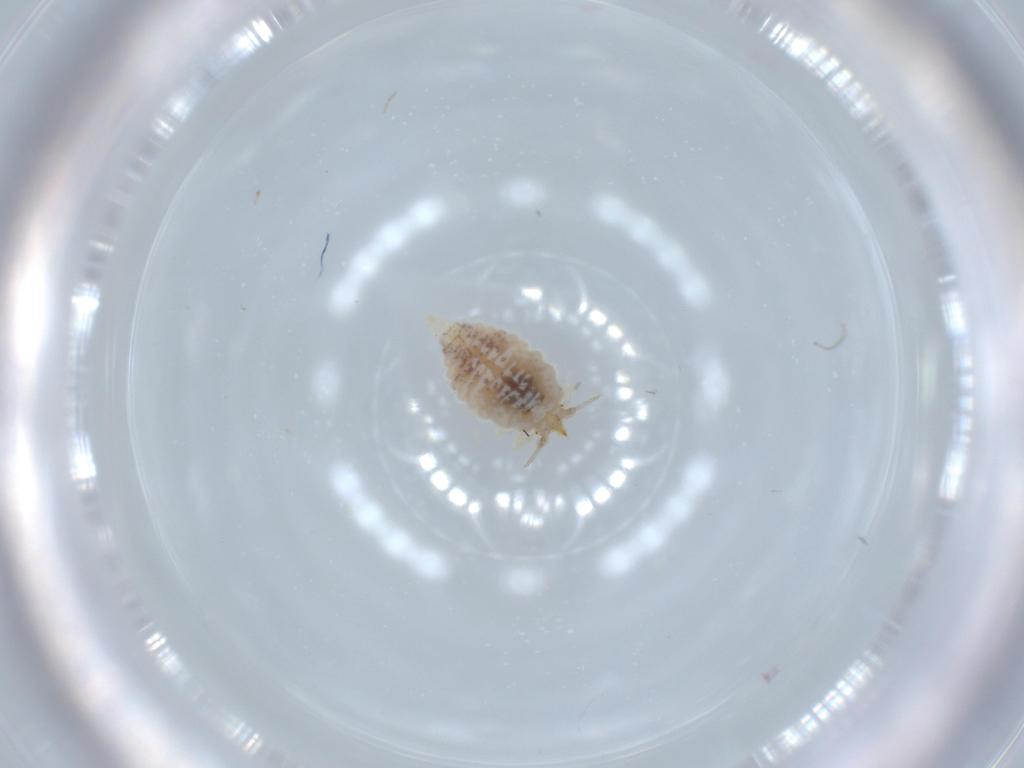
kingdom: Animalia
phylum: Arthropoda
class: Insecta
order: Neuroptera
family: Coniopterygidae
